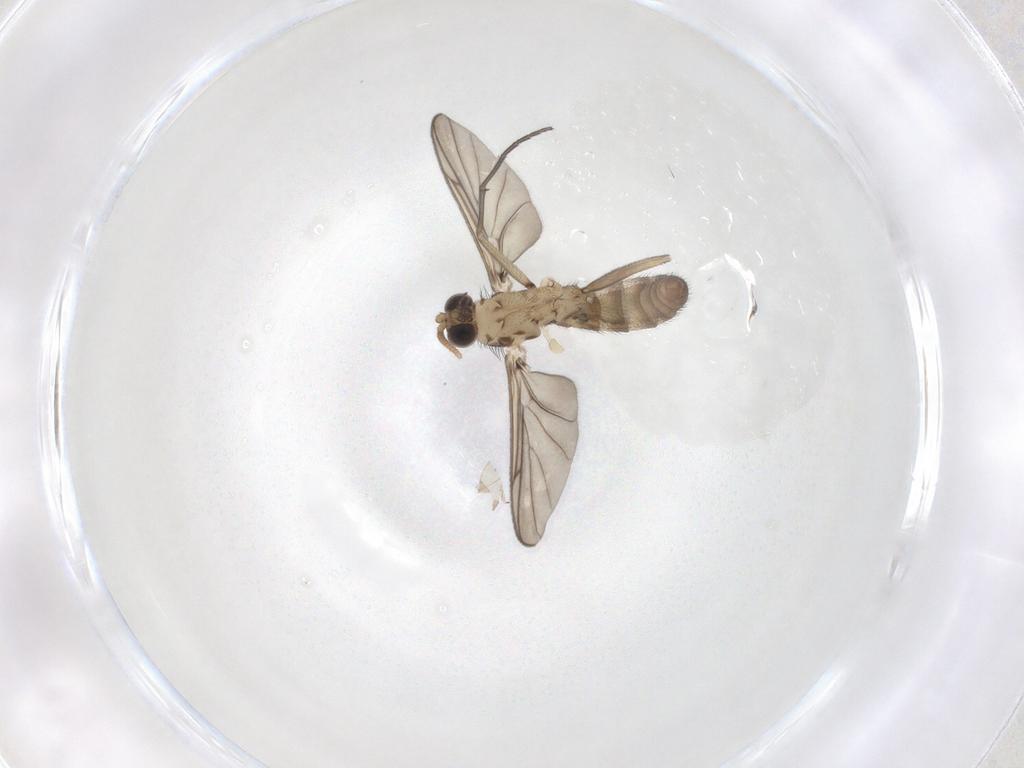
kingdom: Animalia
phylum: Arthropoda
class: Insecta
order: Diptera
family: Keroplatidae
